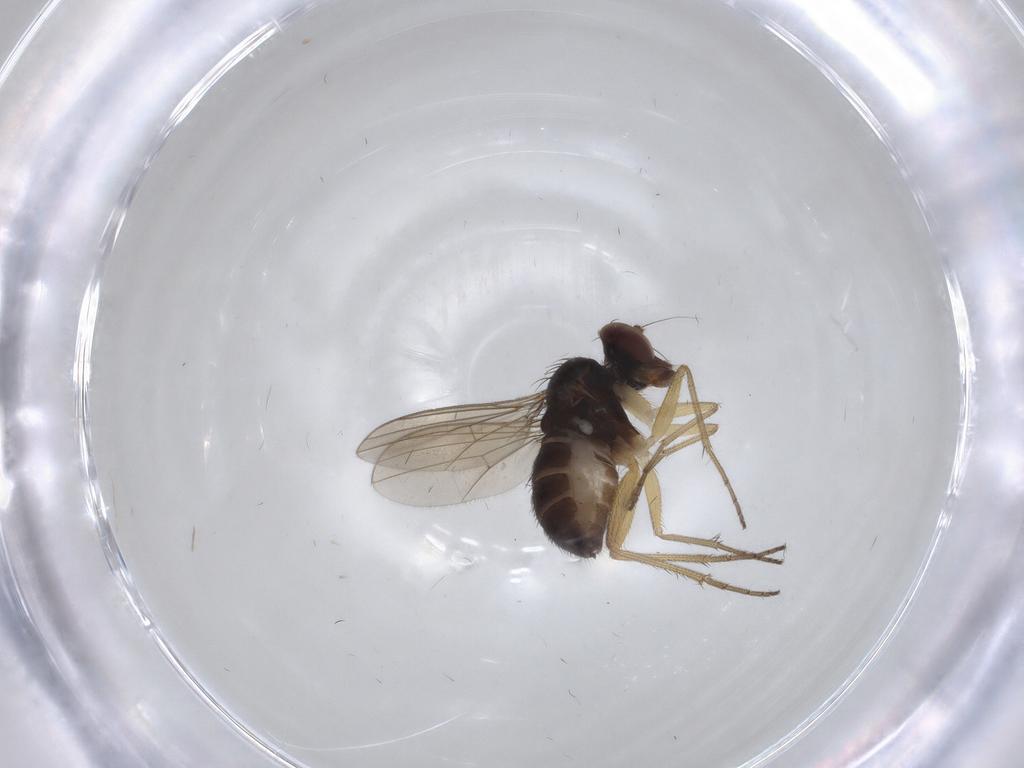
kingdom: Animalia
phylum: Arthropoda
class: Insecta
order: Diptera
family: Dolichopodidae
